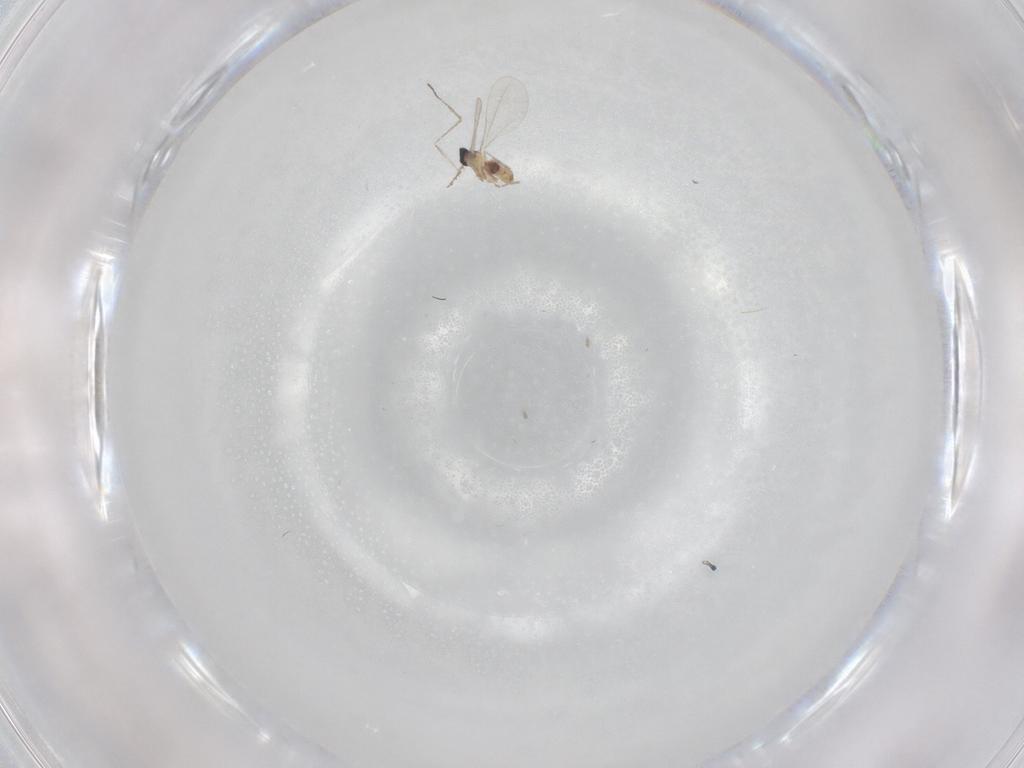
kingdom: Animalia
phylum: Arthropoda
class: Insecta
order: Diptera
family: Cecidomyiidae
